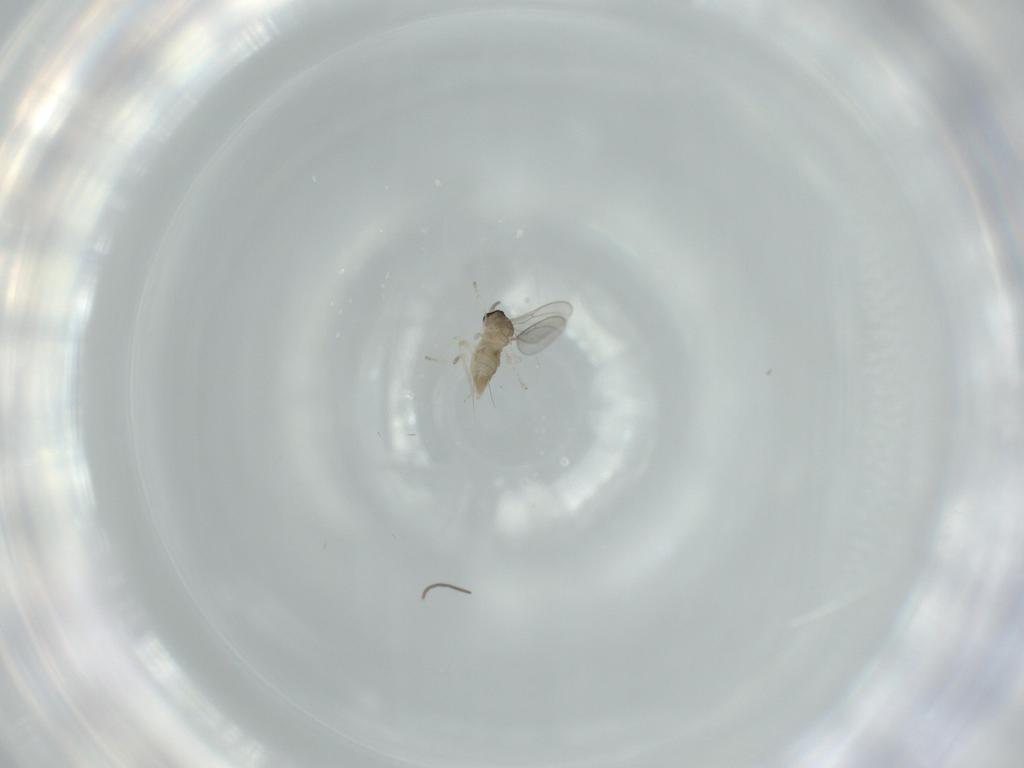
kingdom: Animalia
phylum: Arthropoda
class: Insecta
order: Diptera
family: Cecidomyiidae
